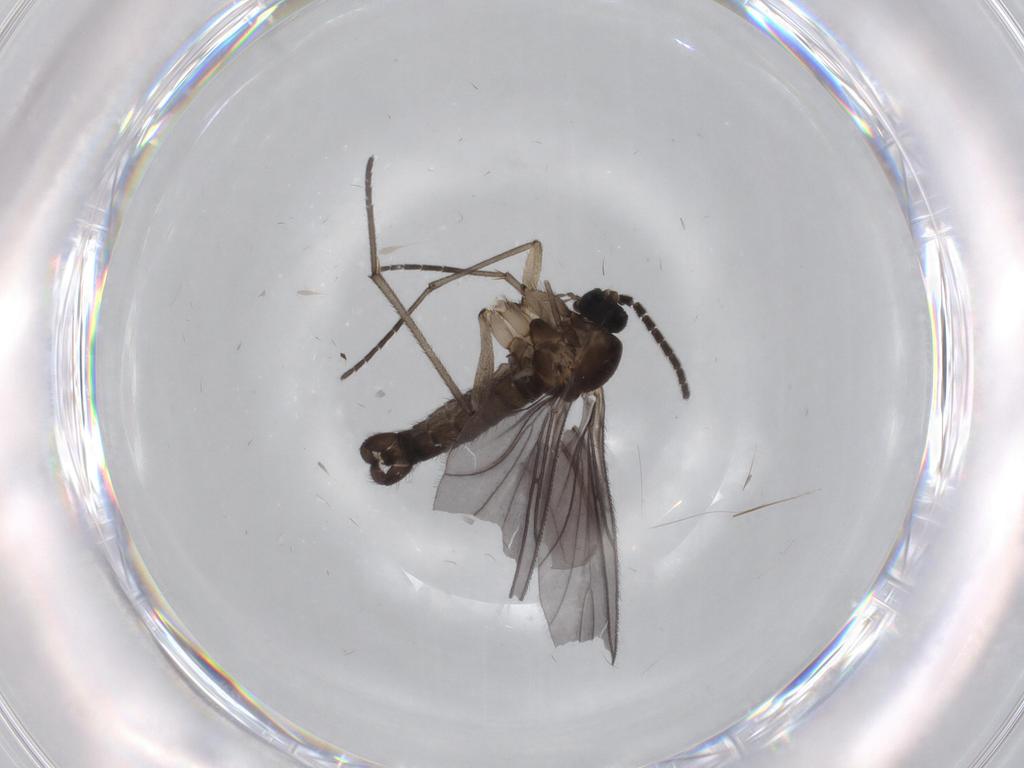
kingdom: Animalia
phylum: Arthropoda
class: Insecta
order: Diptera
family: Sciaridae
